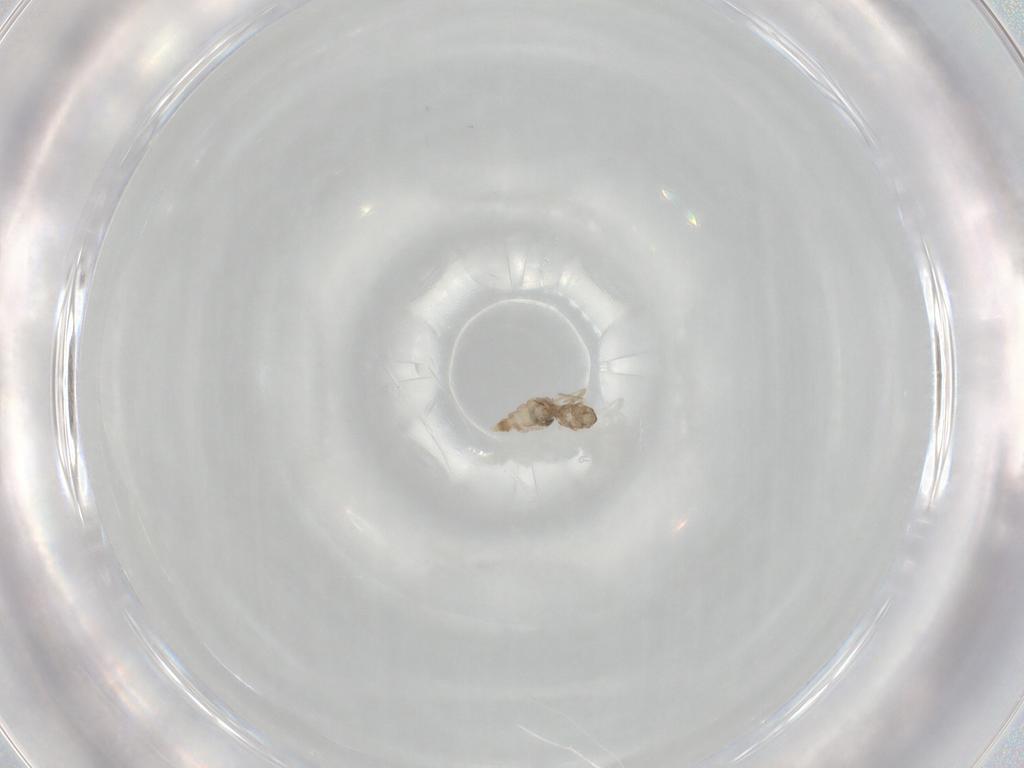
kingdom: Animalia
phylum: Arthropoda
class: Insecta
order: Diptera
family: Cecidomyiidae
